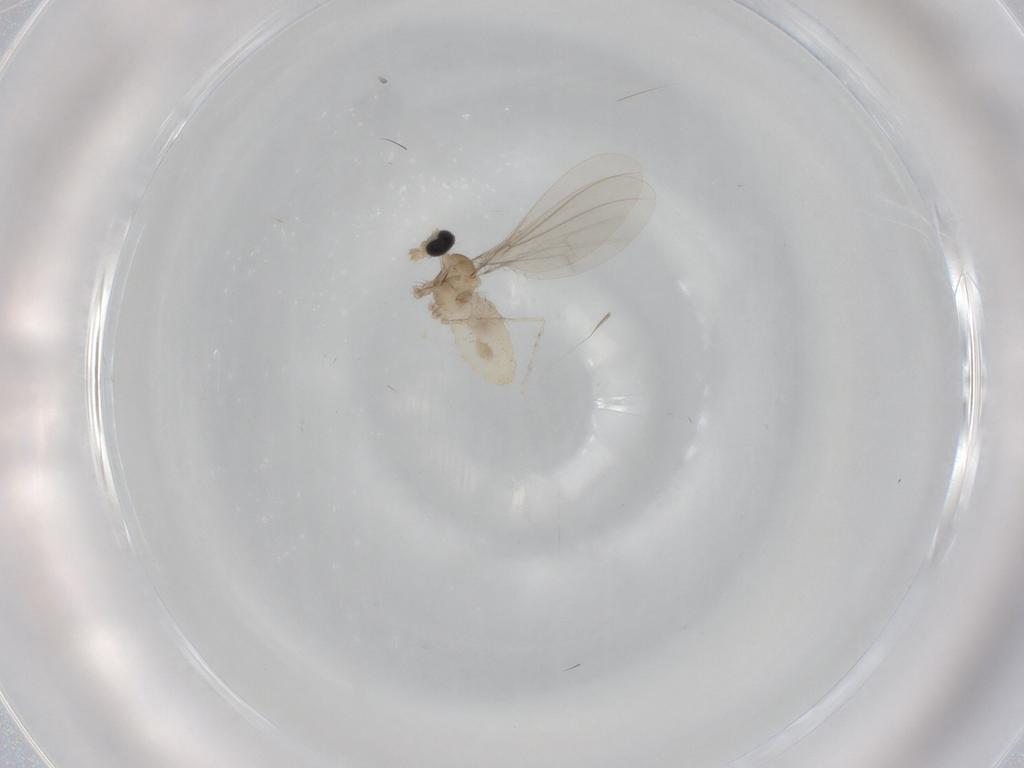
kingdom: Animalia
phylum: Arthropoda
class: Insecta
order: Diptera
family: Cecidomyiidae
